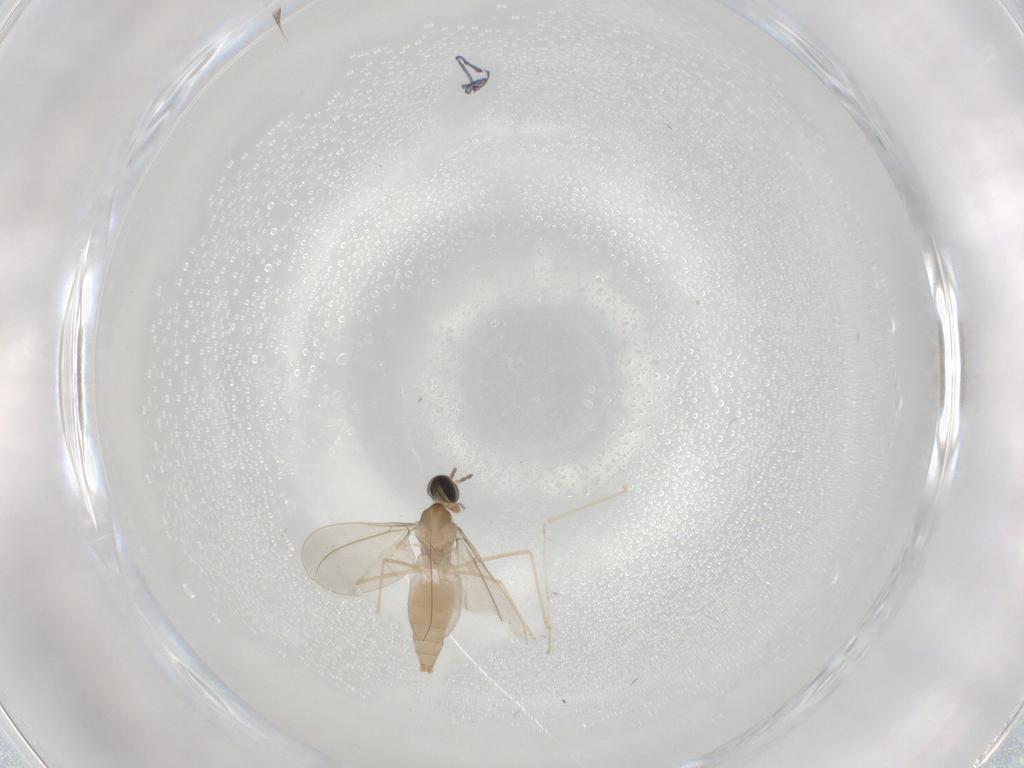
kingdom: Animalia
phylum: Arthropoda
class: Insecta
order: Diptera
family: Cecidomyiidae
